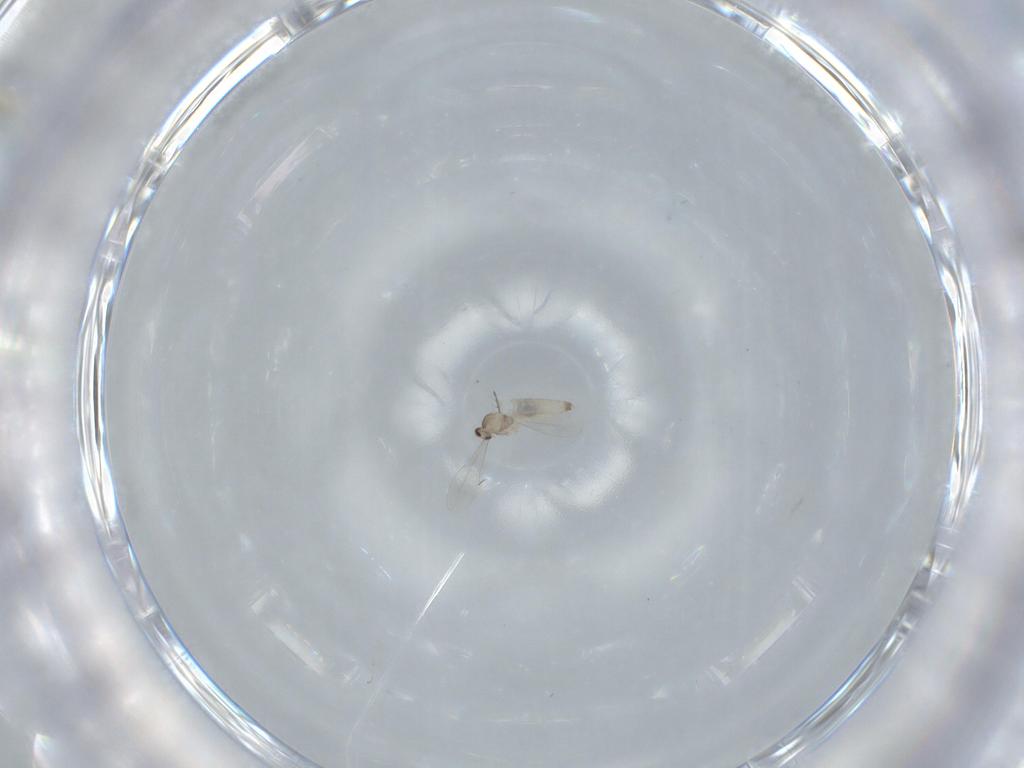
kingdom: Animalia
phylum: Arthropoda
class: Insecta
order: Diptera
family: Cecidomyiidae
